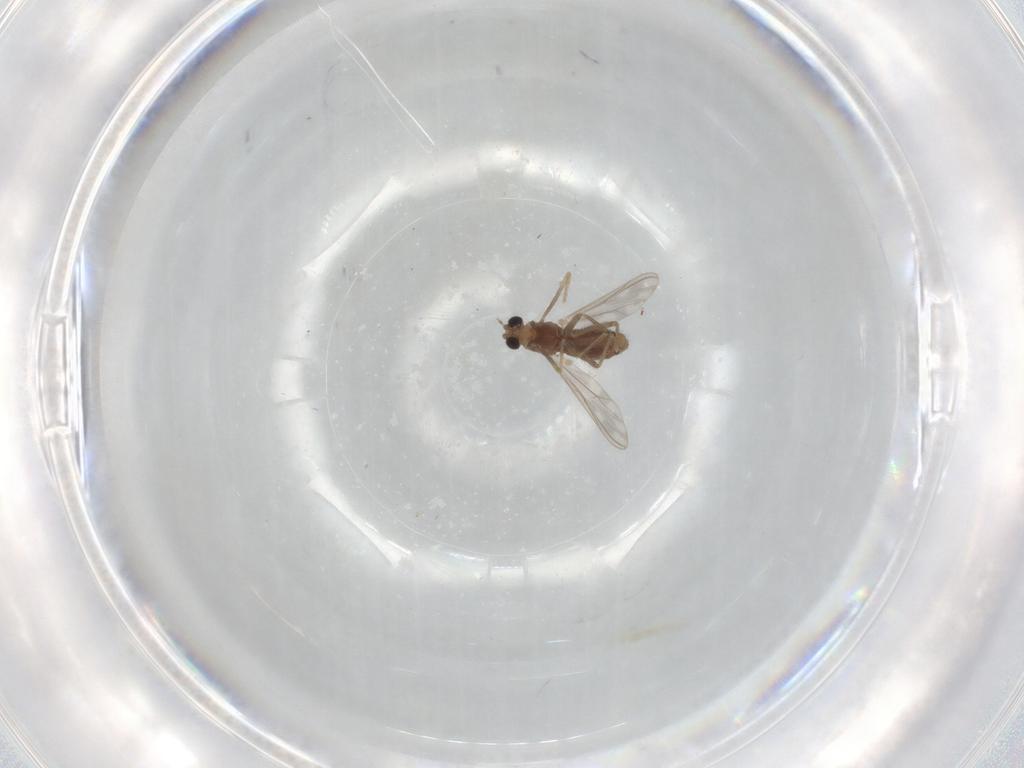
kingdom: Animalia
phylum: Arthropoda
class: Insecta
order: Diptera
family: Chironomidae
